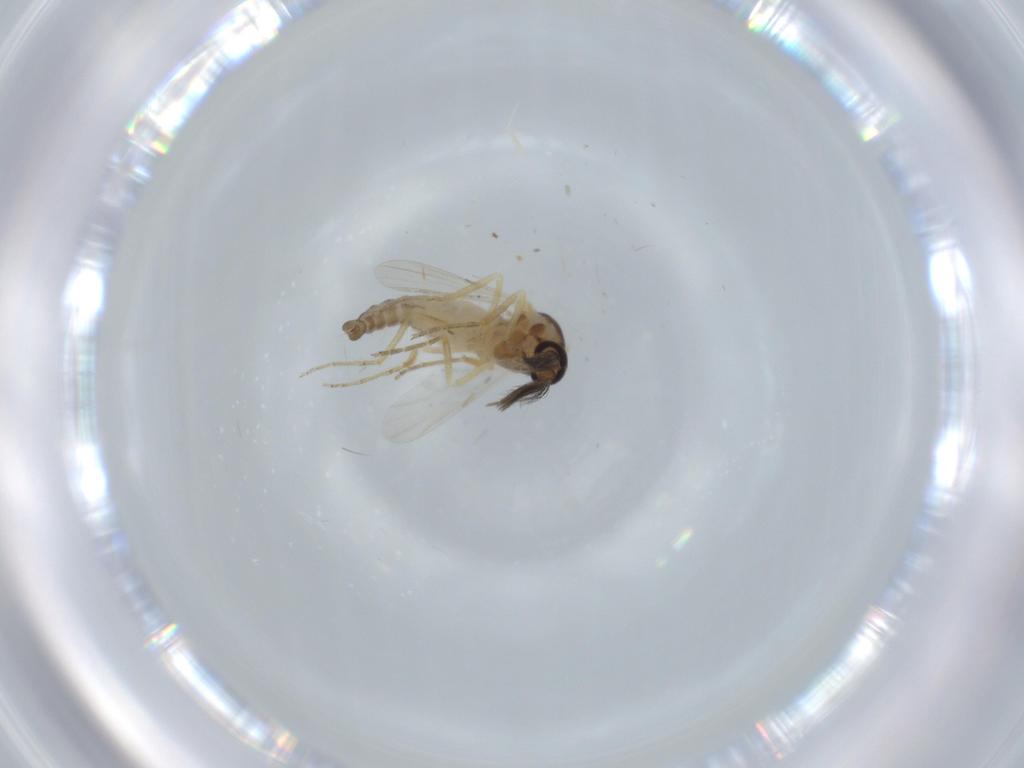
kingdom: Animalia
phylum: Arthropoda
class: Insecta
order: Diptera
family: Ceratopogonidae
